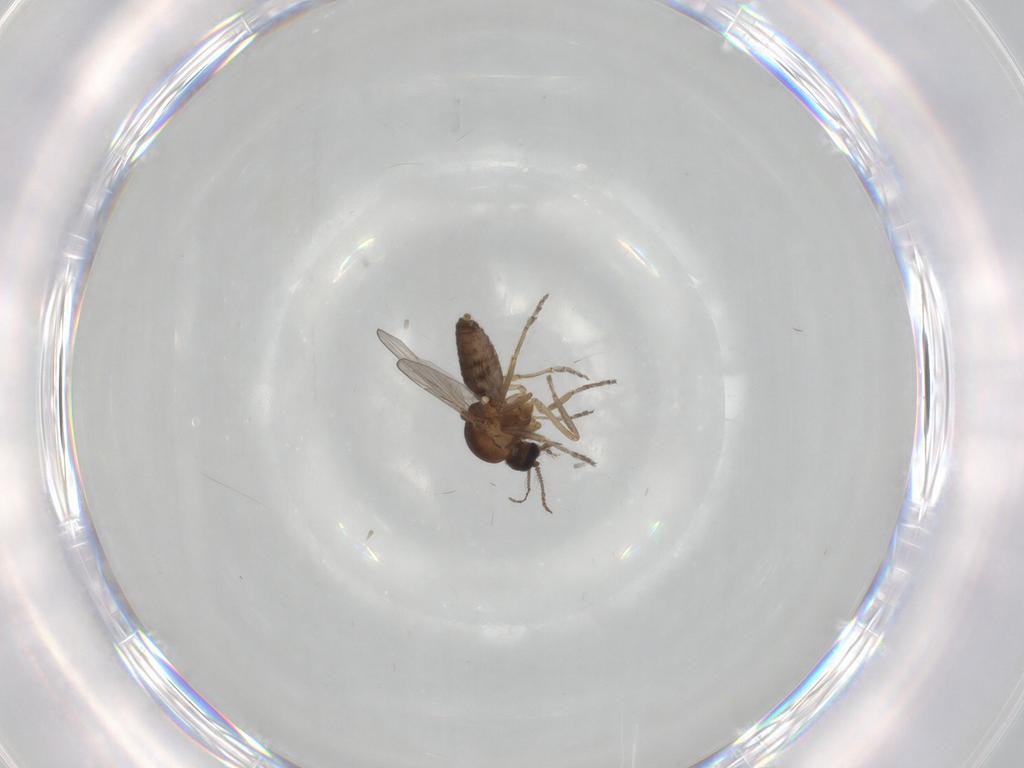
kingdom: Animalia
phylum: Arthropoda
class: Insecta
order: Diptera
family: Ceratopogonidae
